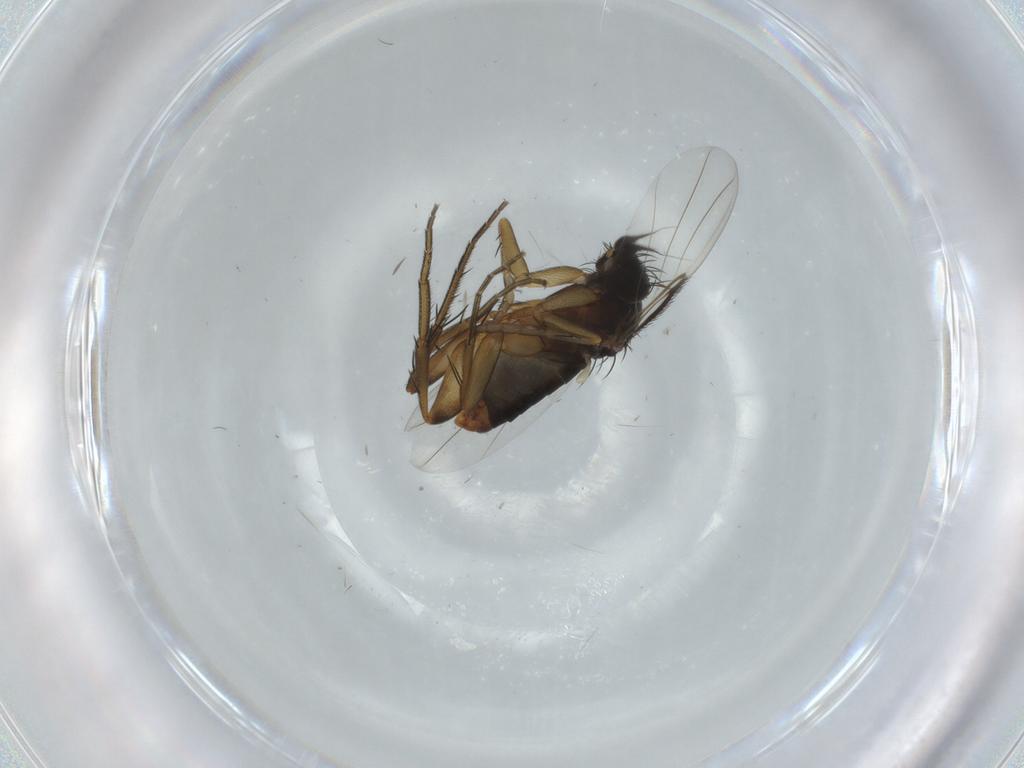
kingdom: Animalia
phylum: Arthropoda
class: Insecta
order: Diptera
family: Phoridae
